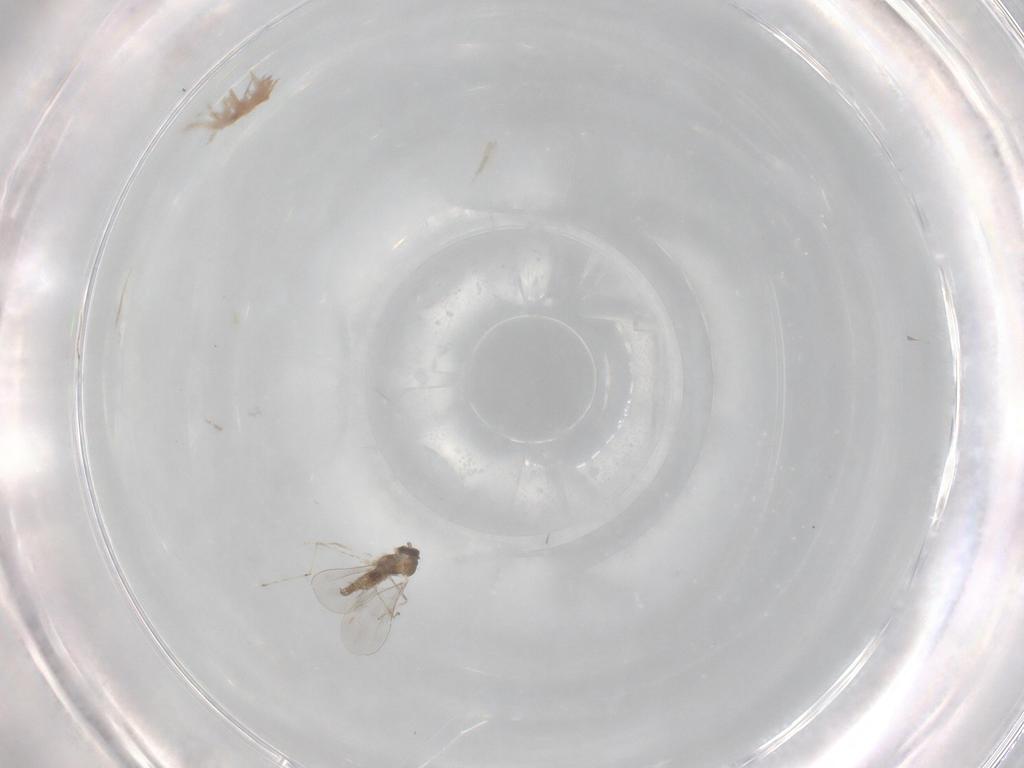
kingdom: Animalia
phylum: Arthropoda
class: Insecta
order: Diptera
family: Cecidomyiidae
